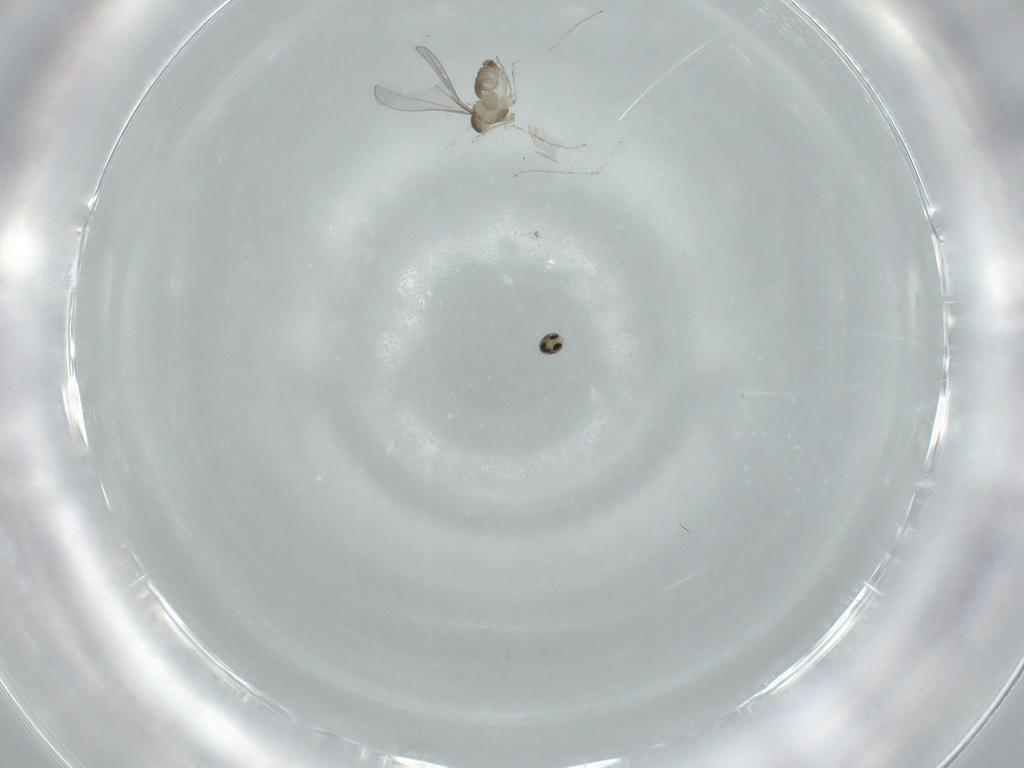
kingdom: Animalia
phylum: Arthropoda
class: Insecta
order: Diptera
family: Cecidomyiidae
